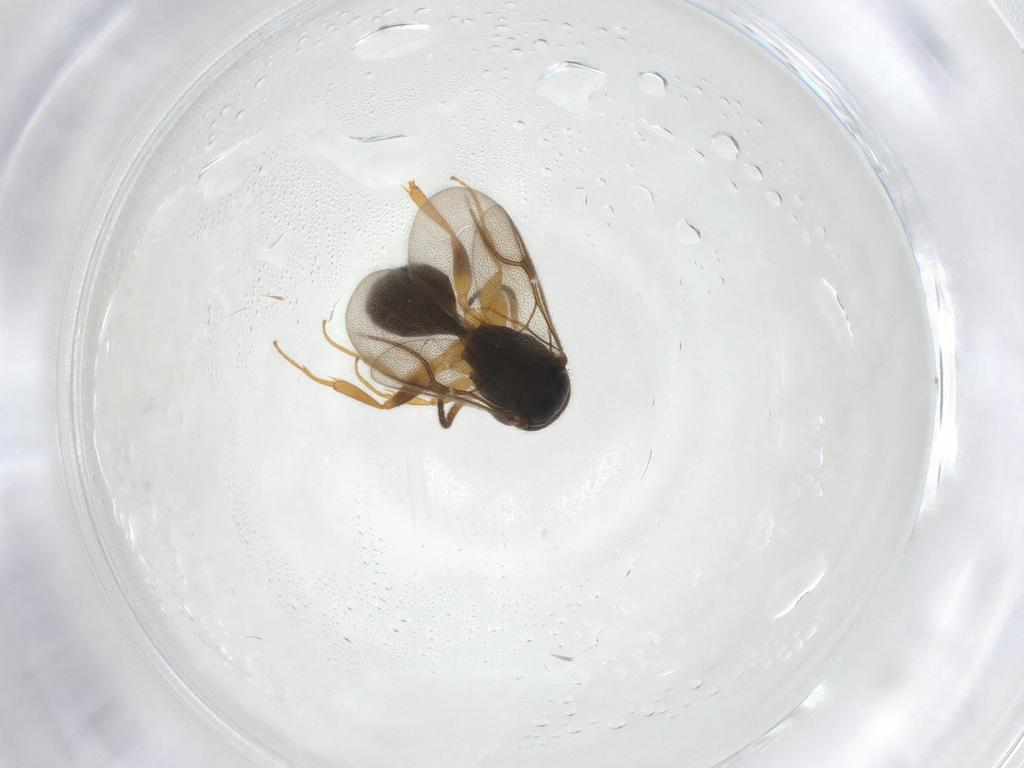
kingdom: Animalia
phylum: Arthropoda
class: Insecta
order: Hymenoptera
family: Bethylidae
